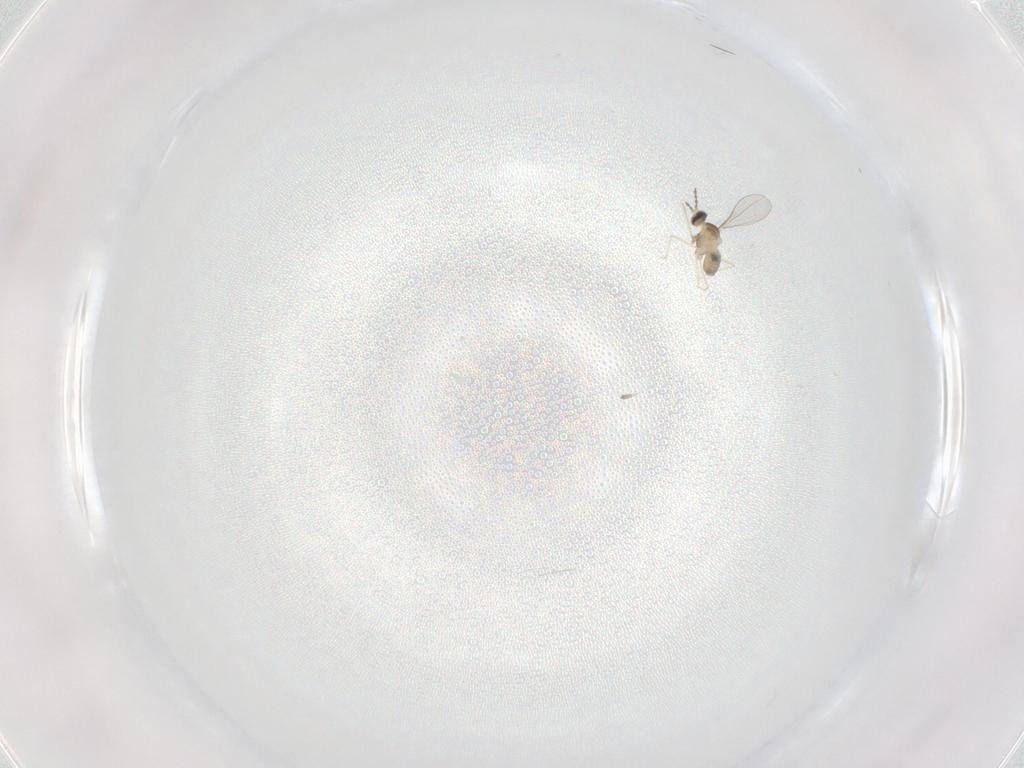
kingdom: Animalia
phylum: Arthropoda
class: Insecta
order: Diptera
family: Cecidomyiidae
